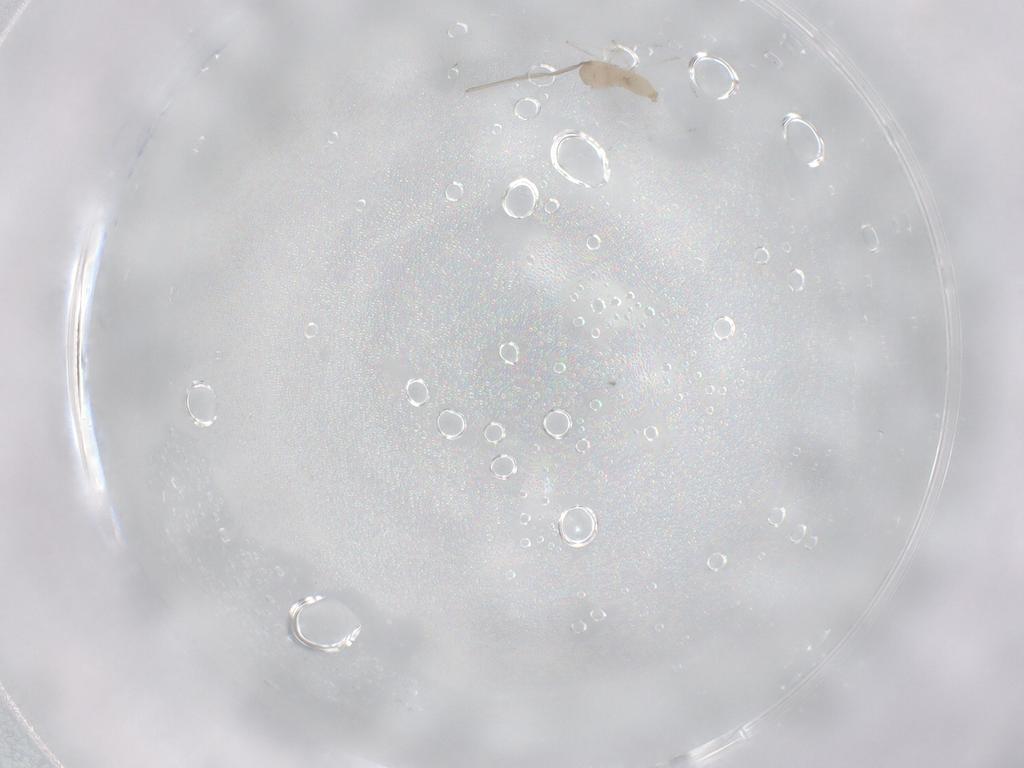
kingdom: Animalia
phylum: Arthropoda
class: Insecta
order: Diptera
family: Cecidomyiidae
